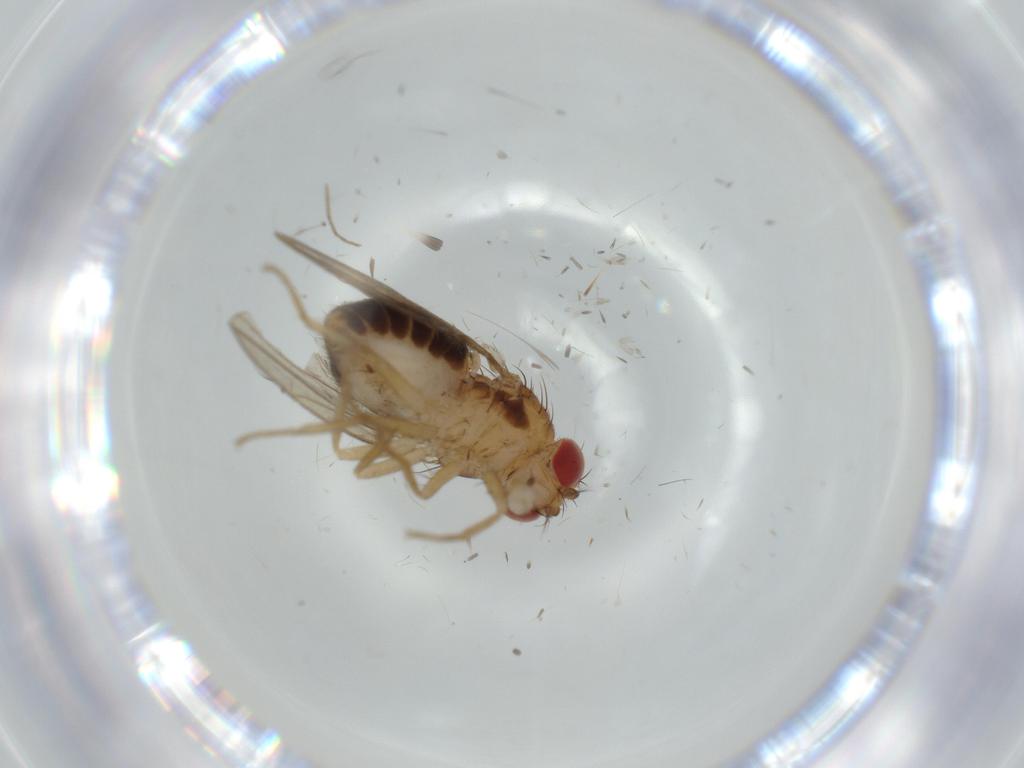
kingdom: Animalia
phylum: Arthropoda
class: Insecta
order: Diptera
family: Drosophilidae
